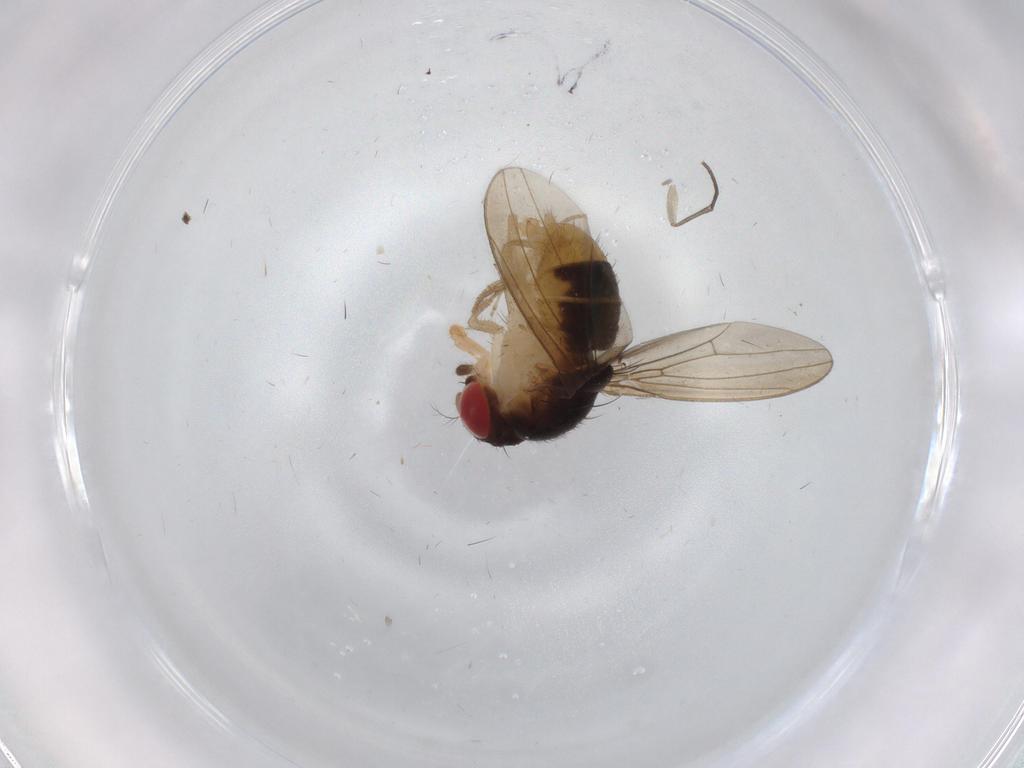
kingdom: Animalia
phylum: Arthropoda
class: Insecta
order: Diptera
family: Drosophilidae
